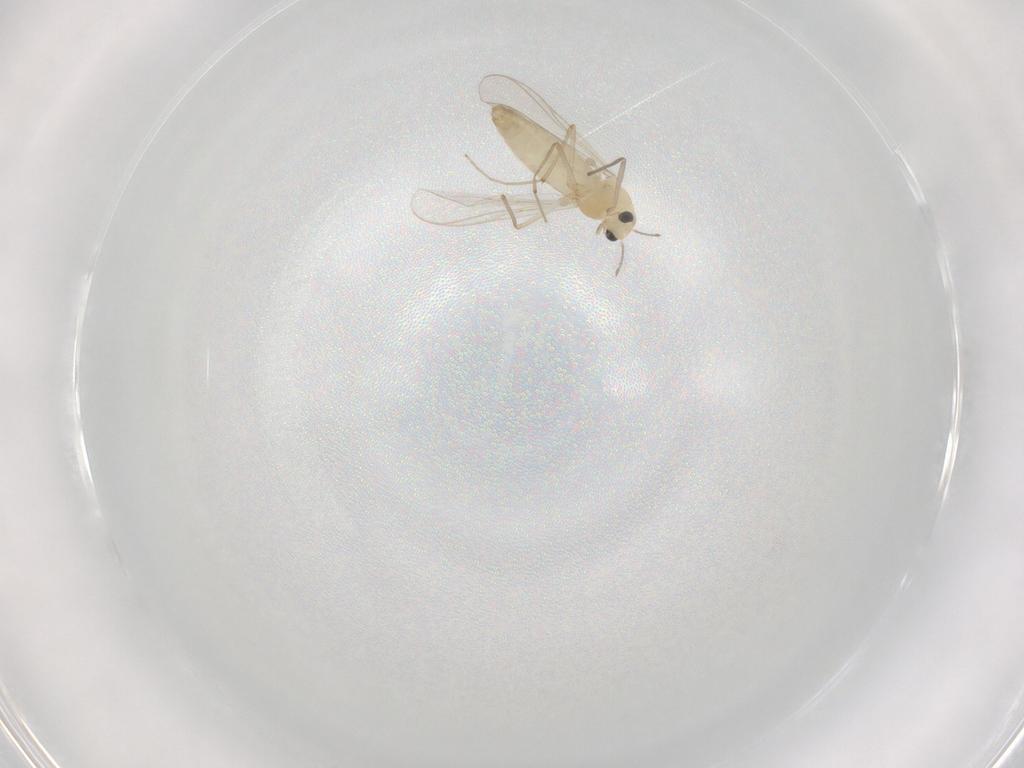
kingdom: Animalia
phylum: Arthropoda
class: Insecta
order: Diptera
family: Chironomidae
